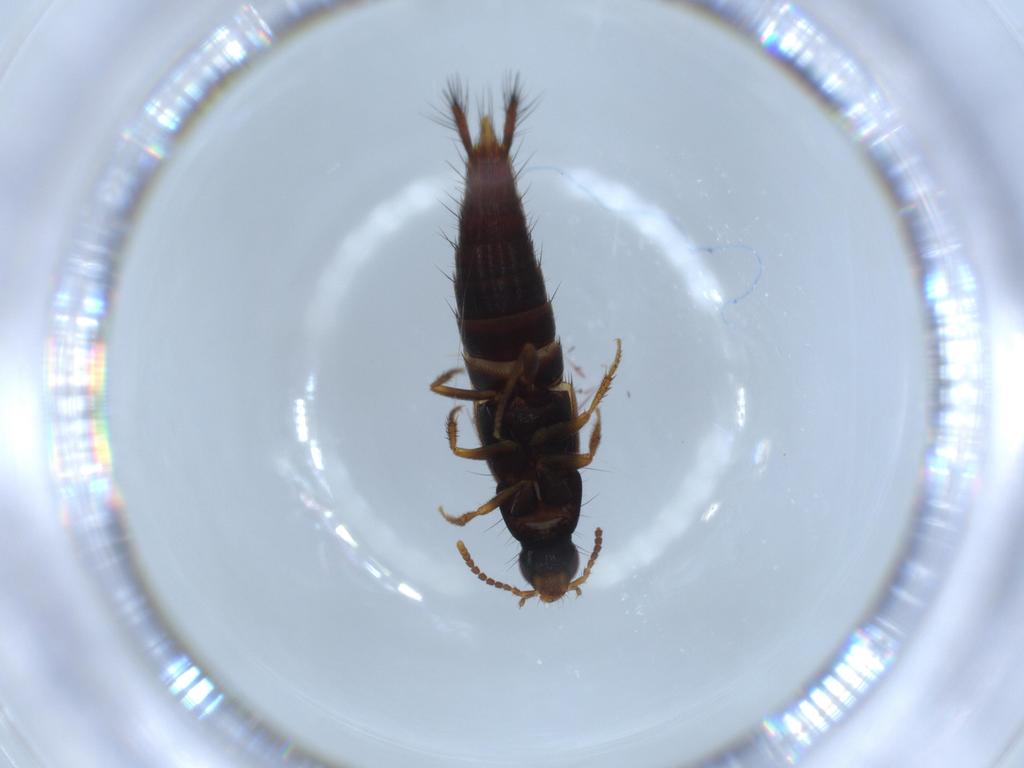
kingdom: Animalia
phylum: Arthropoda
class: Insecta
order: Coleoptera
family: Staphylinidae
